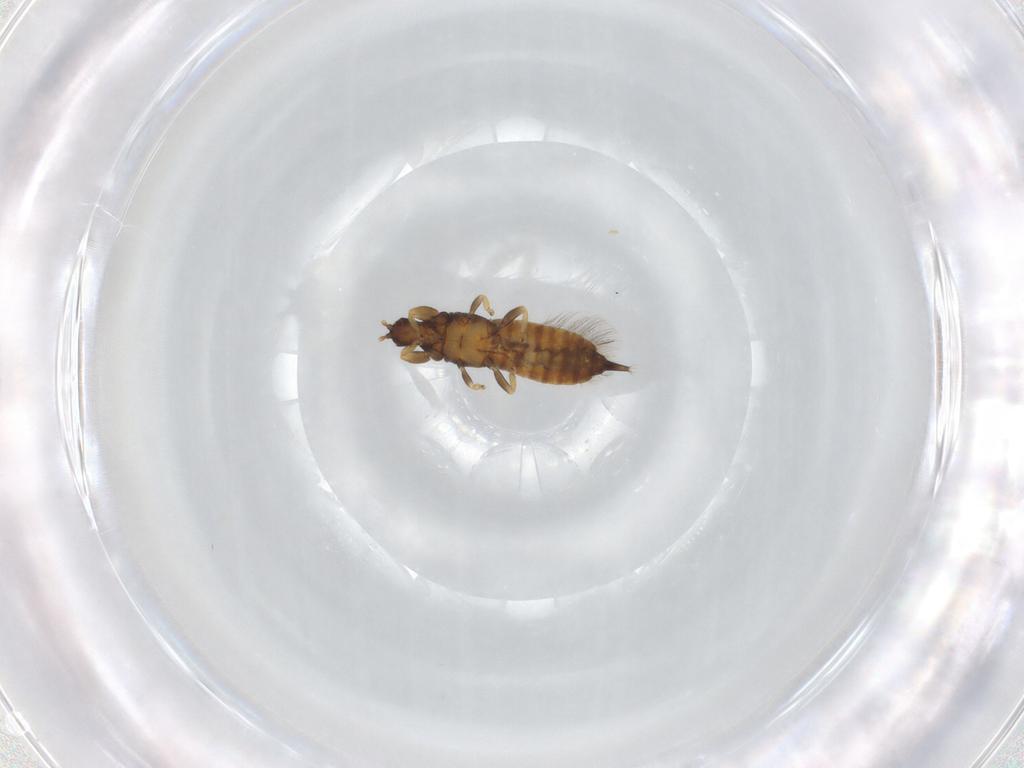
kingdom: Animalia
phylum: Arthropoda
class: Insecta
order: Thysanoptera
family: Phlaeothripidae
